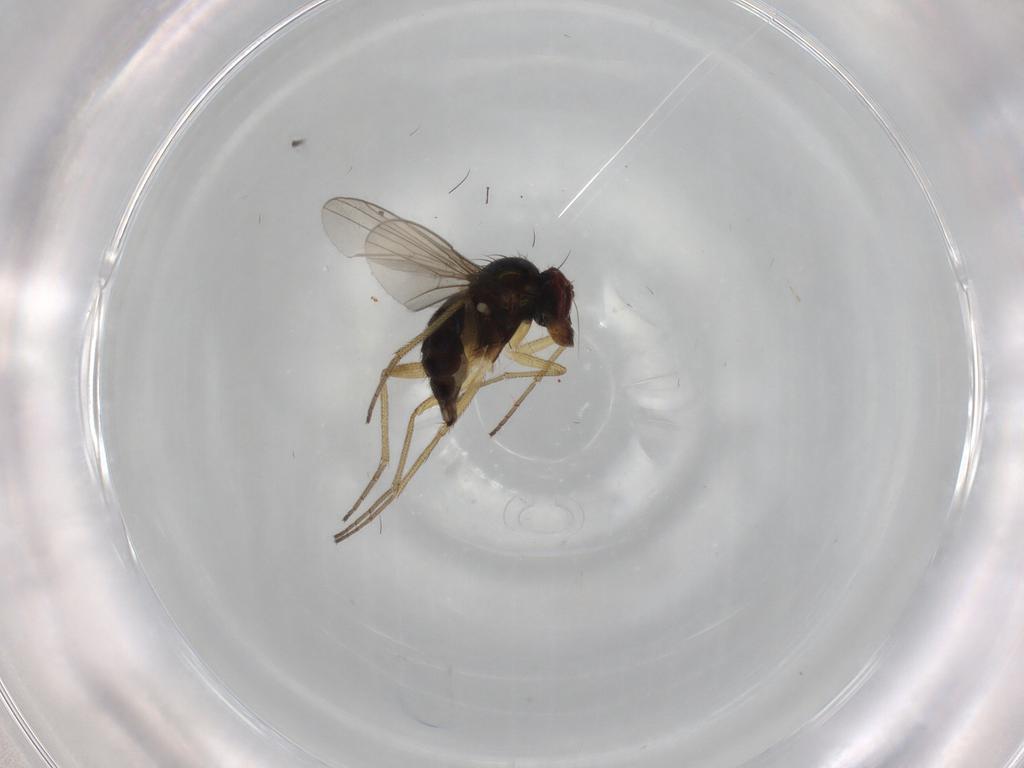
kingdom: Animalia
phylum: Arthropoda
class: Insecta
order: Diptera
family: Dolichopodidae
